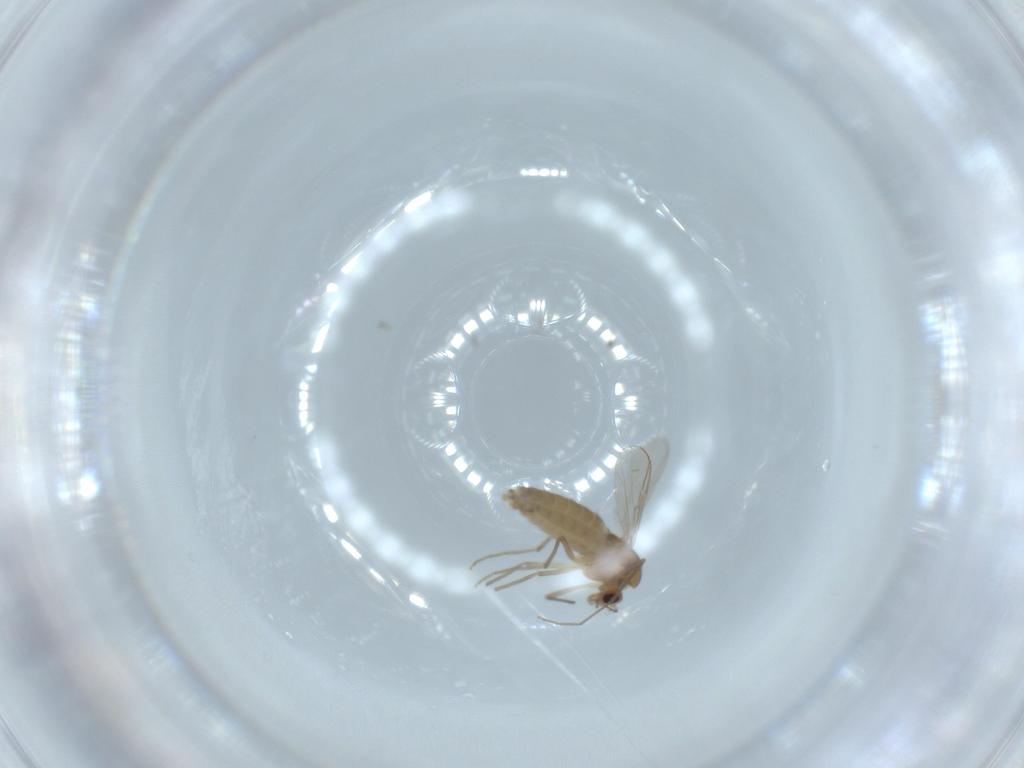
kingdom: Animalia
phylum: Arthropoda
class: Insecta
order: Diptera
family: Chironomidae
